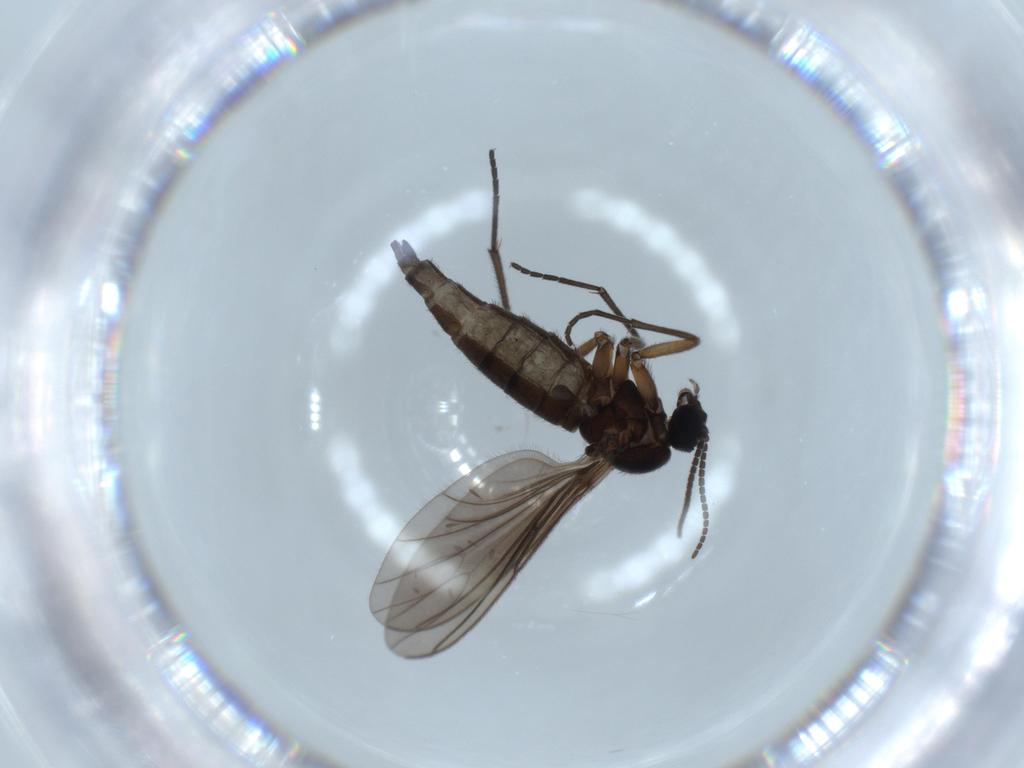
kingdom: Animalia
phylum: Arthropoda
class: Insecta
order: Diptera
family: Sciaridae
